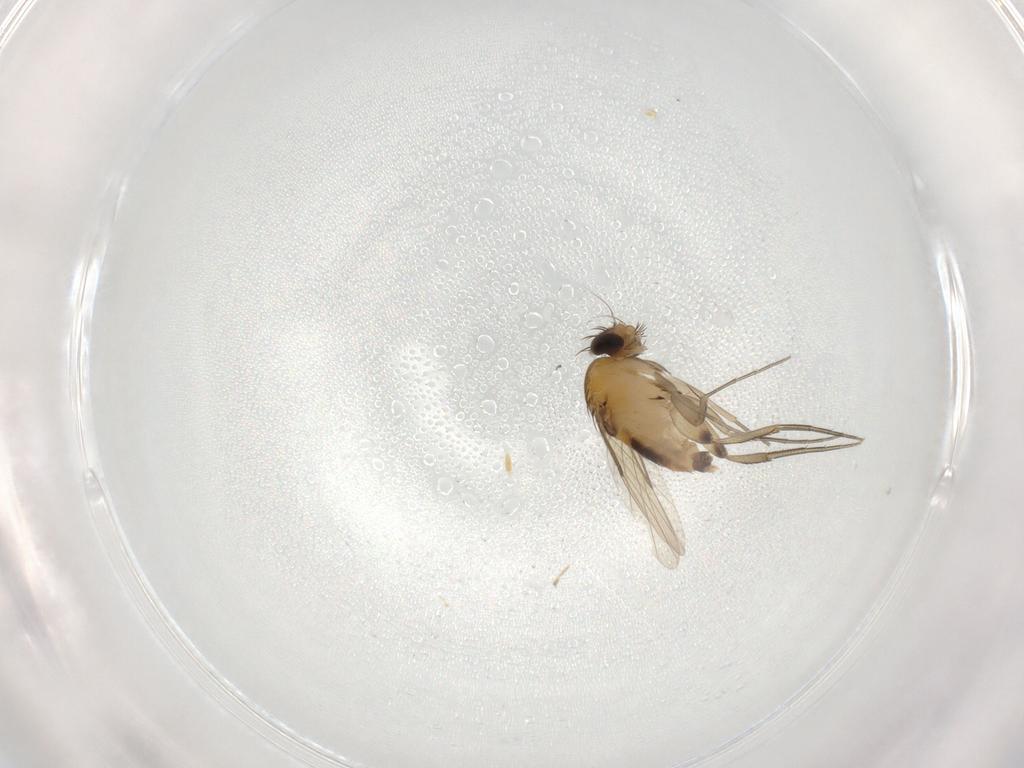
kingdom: Animalia
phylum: Arthropoda
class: Insecta
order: Diptera
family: Phoridae
